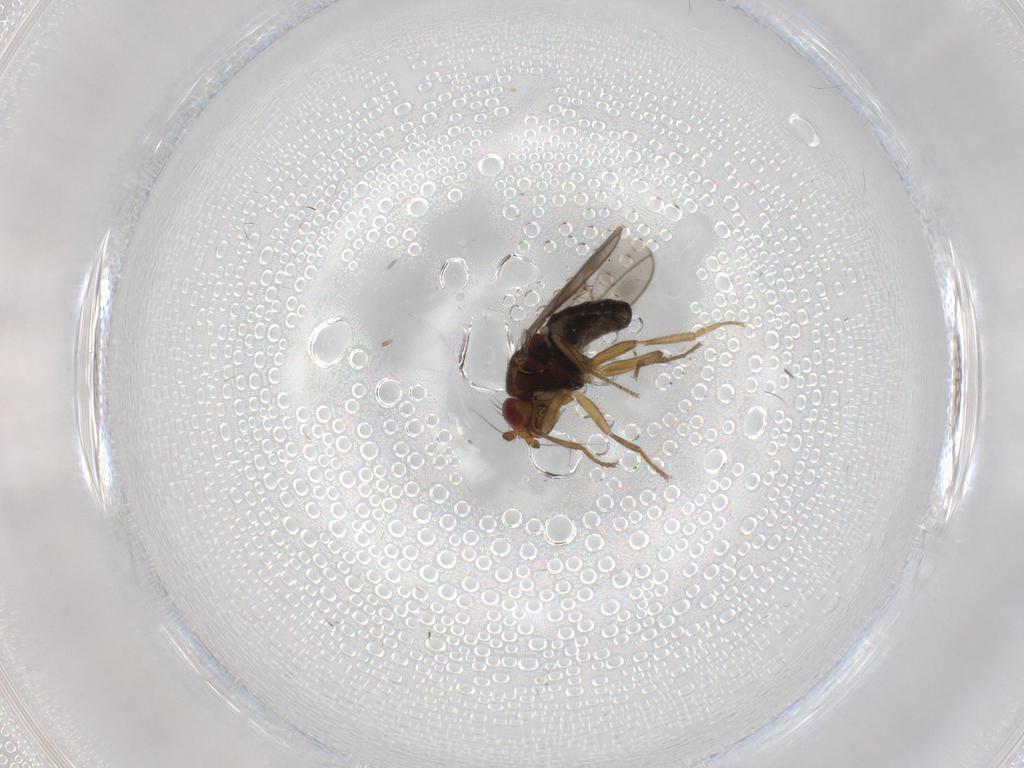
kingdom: Animalia
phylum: Arthropoda
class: Insecta
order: Diptera
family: Sphaeroceridae
